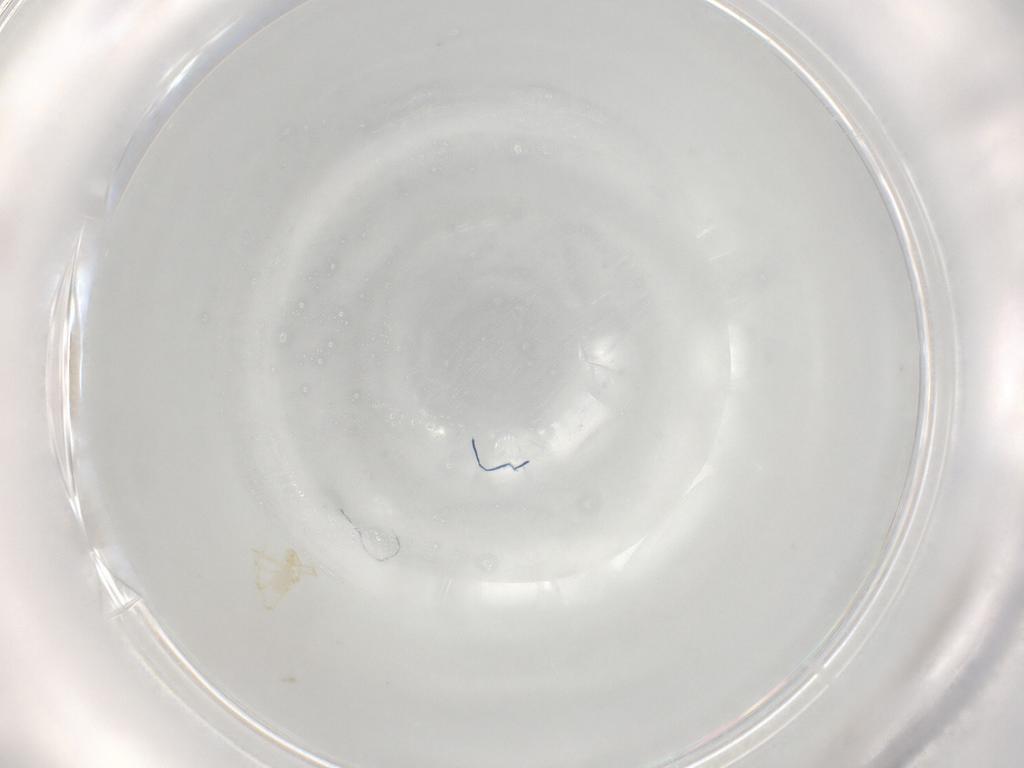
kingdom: Animalia
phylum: Arthropoda
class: Arachnida
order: Trombidiformes
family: Erythraeidae
